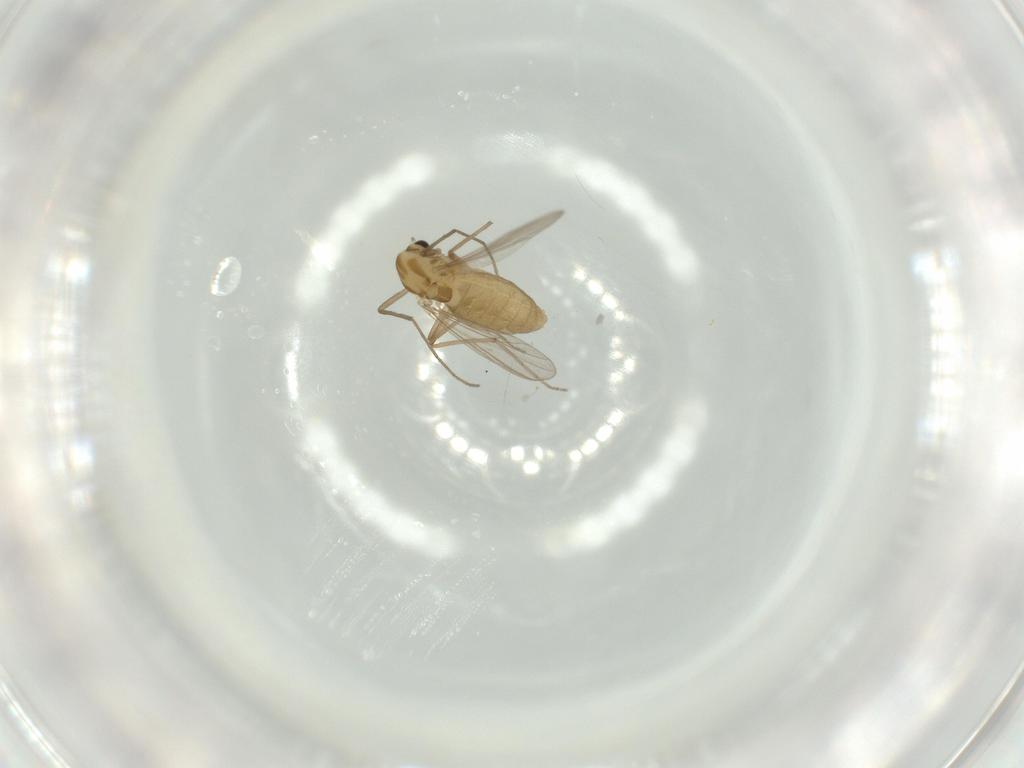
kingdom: Animalia
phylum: Arthropoda
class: Insecta
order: Diptera
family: Chironomidae
